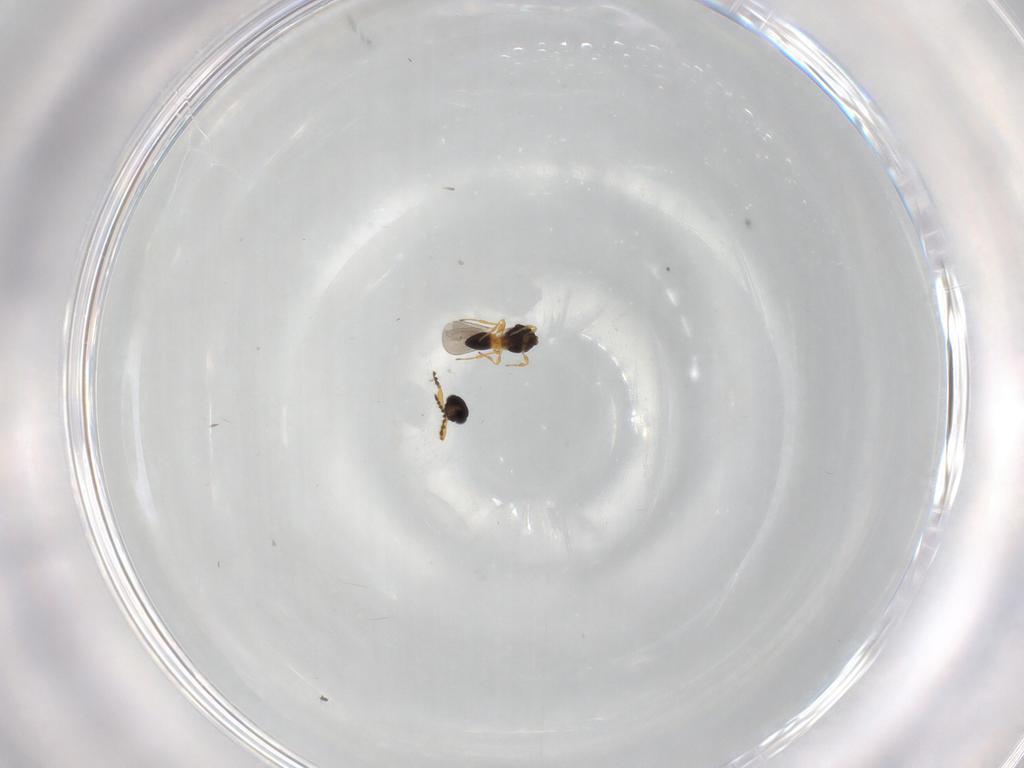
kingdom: Animalia
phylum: Arthropoda
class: Insecta
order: Hymenoptera
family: Platygastridae
